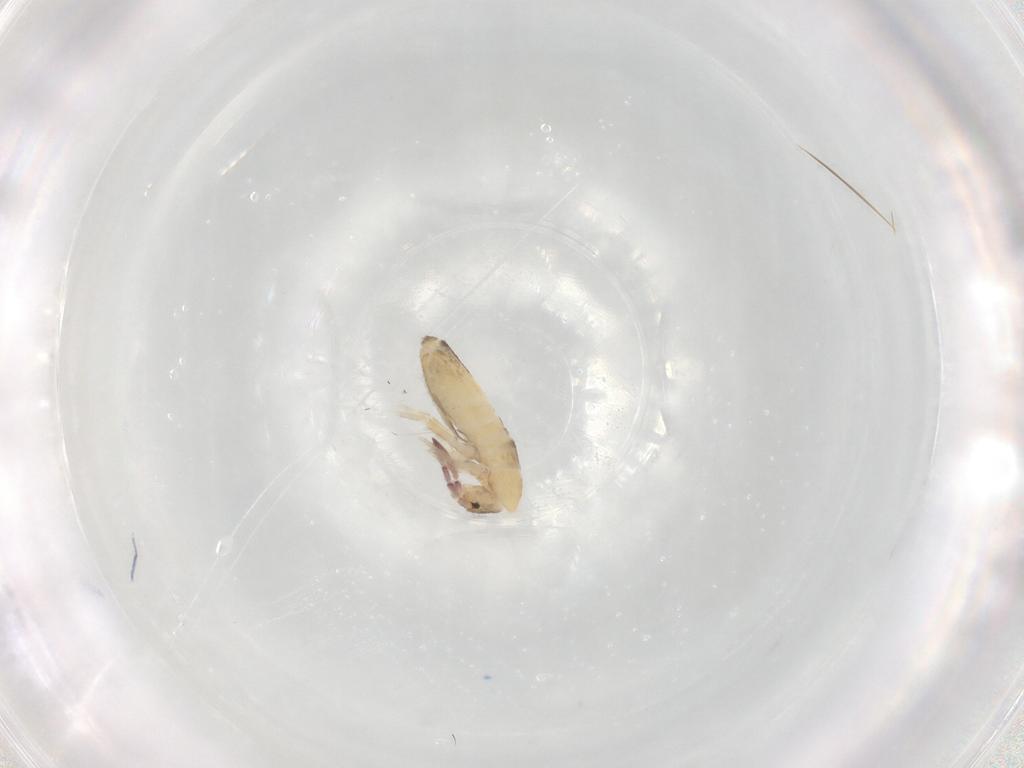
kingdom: Animalia
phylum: Arthropoda
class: Collembola
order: Entomobryomorpha
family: Entomobryidae
